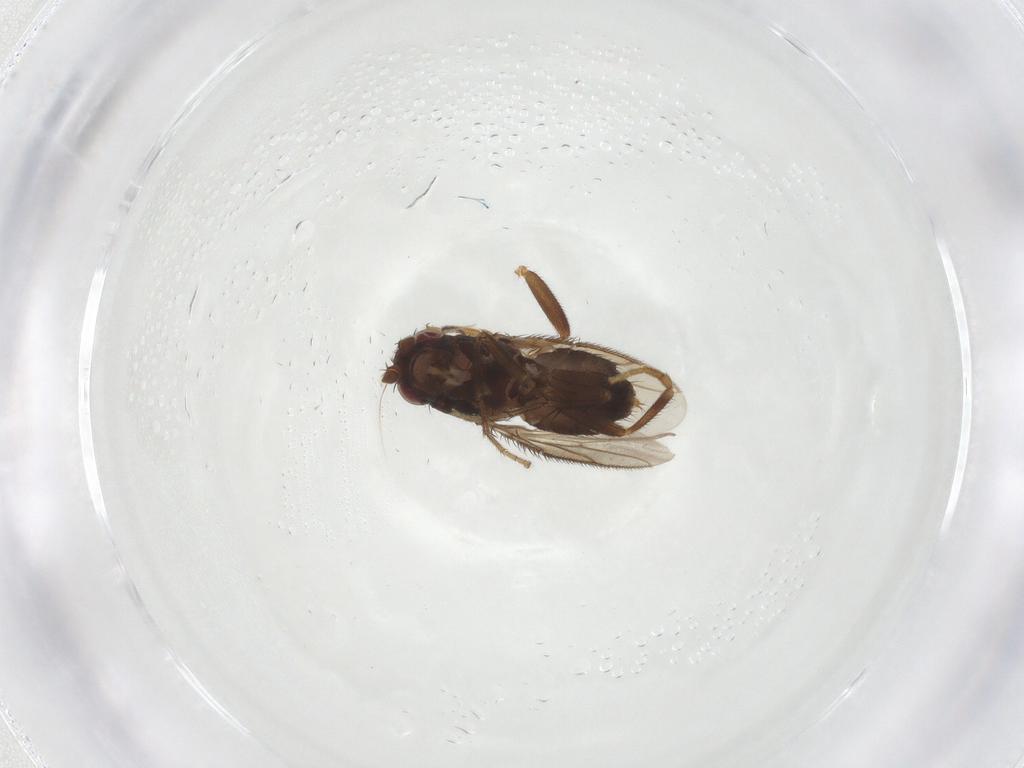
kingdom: Animalia
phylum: Arthropoda
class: Insecta
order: Diptera
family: Sphaeroceridae
